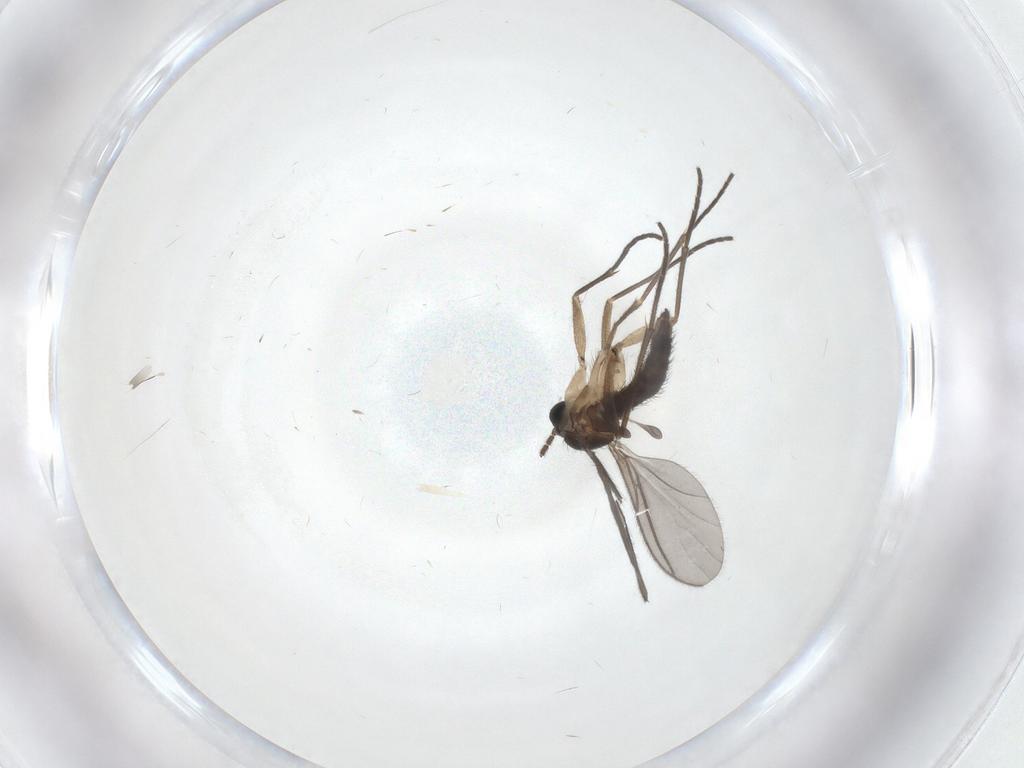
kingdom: Animalia
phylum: Arthropoda
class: Insecta
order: Diptera
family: Sciaridae
